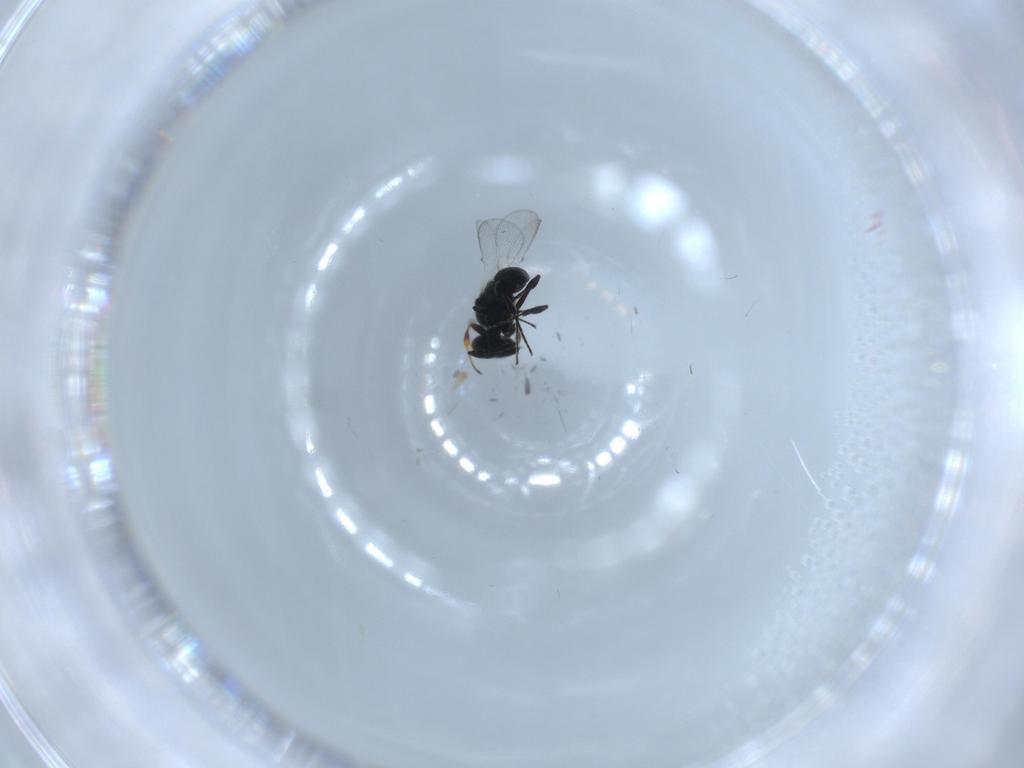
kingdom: Animalia
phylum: Arthropoda
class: Insecta
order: Hymenoptera
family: Platygastridae
